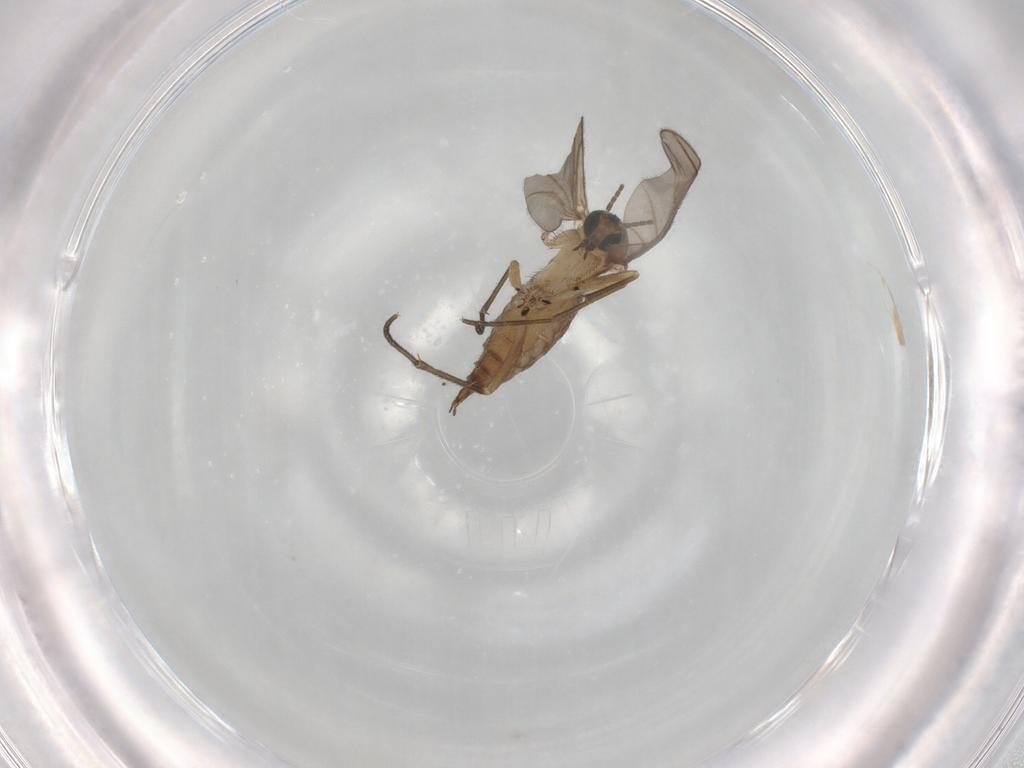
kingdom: Animalia
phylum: Arthropoda
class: Insecta
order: Diptera
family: Sciaridae
